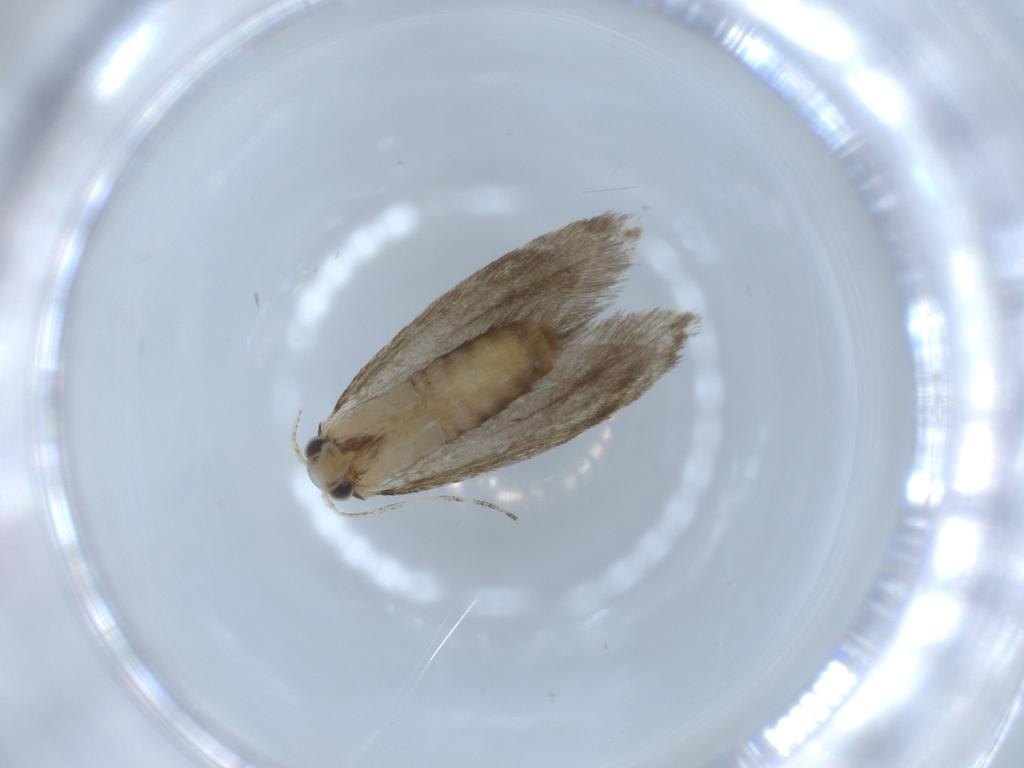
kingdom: Animalia
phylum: Arthropoda
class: Insecta
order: Lepidoptera
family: Tineidae
